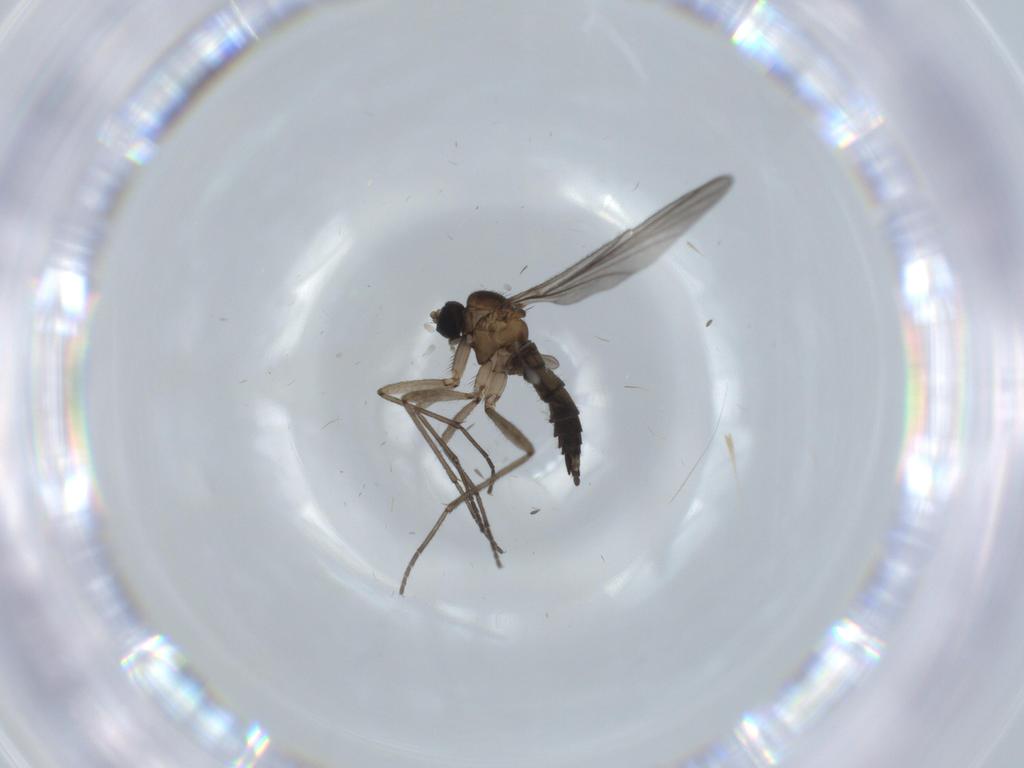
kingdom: Animalia
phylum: Arthropoda
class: Insecta
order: Diptera
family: Sciaridae
